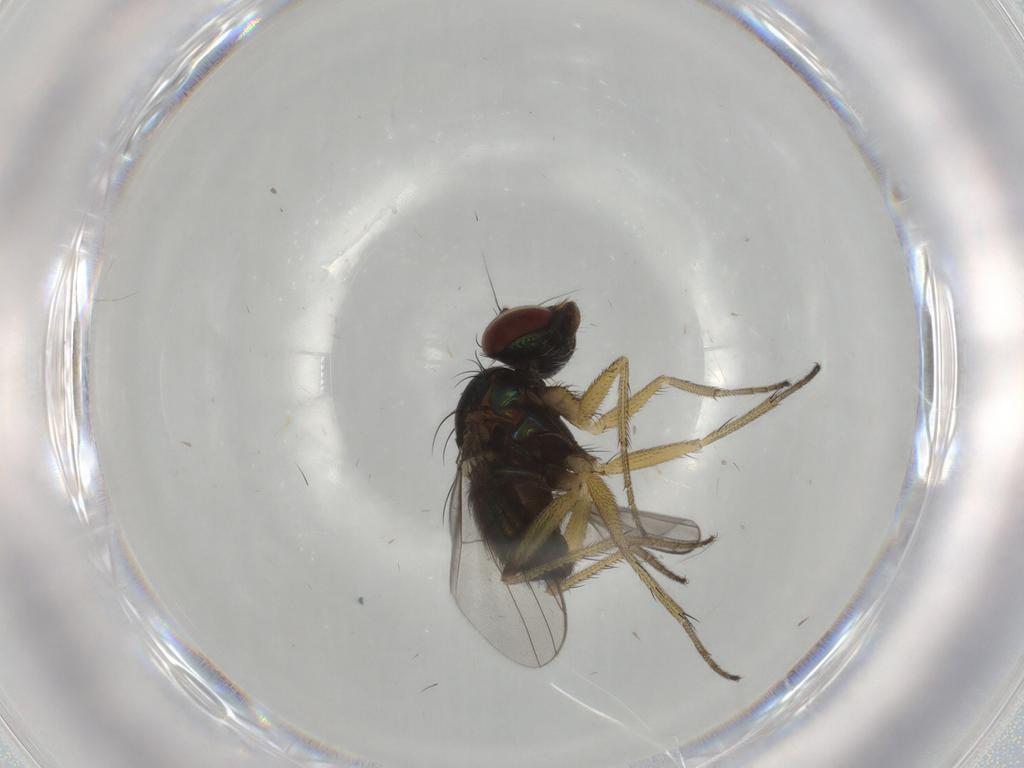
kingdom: Animalia
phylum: Arthropoda
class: Insecta
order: Diptera
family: Dolichopodidae
